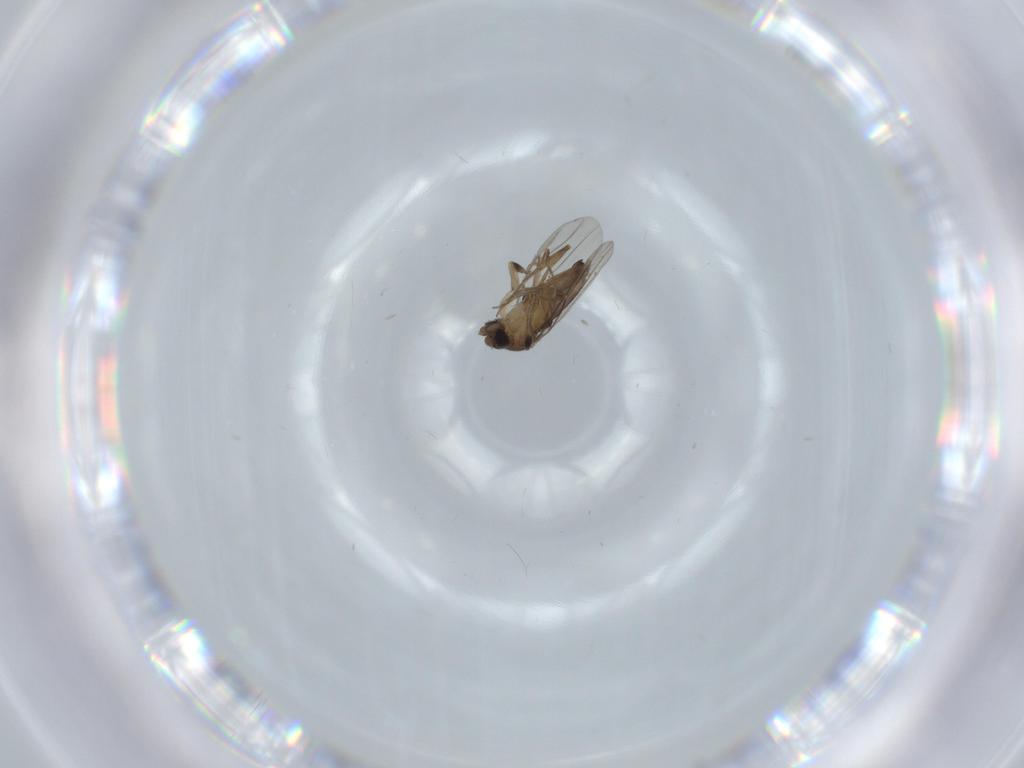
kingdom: Animalia
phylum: Arthropoda
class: Insecta
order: Diptera
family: Phoridae
